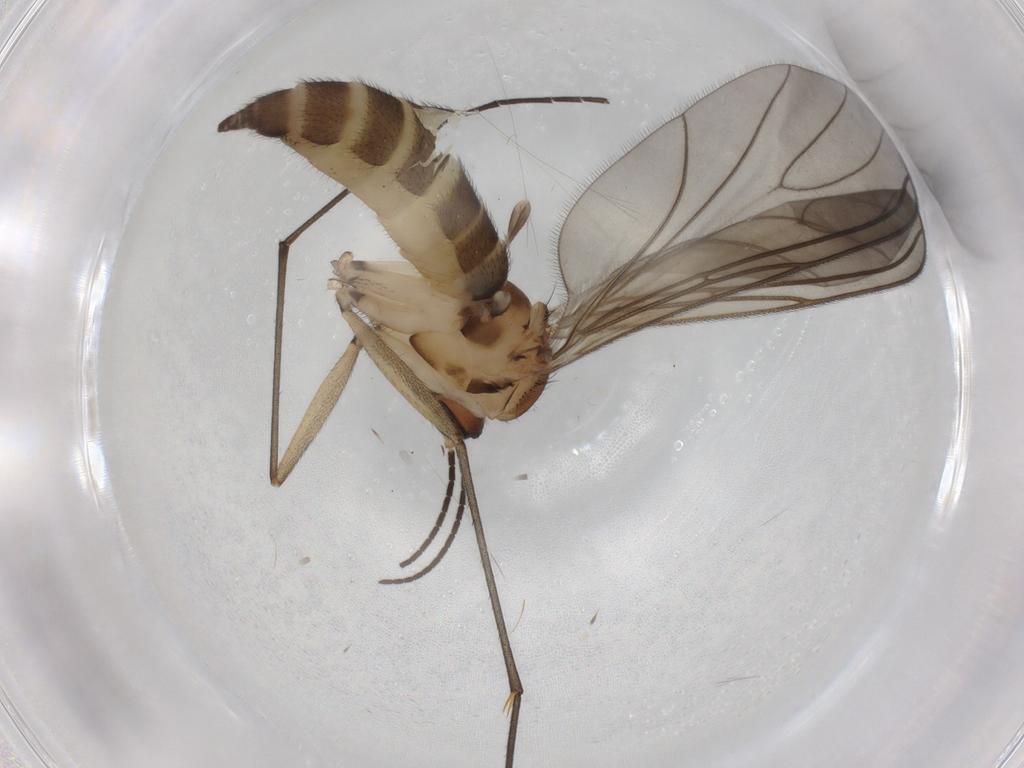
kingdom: Animalia
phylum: Arthropoda
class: Insecta
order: Diptera
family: Sciaridae
